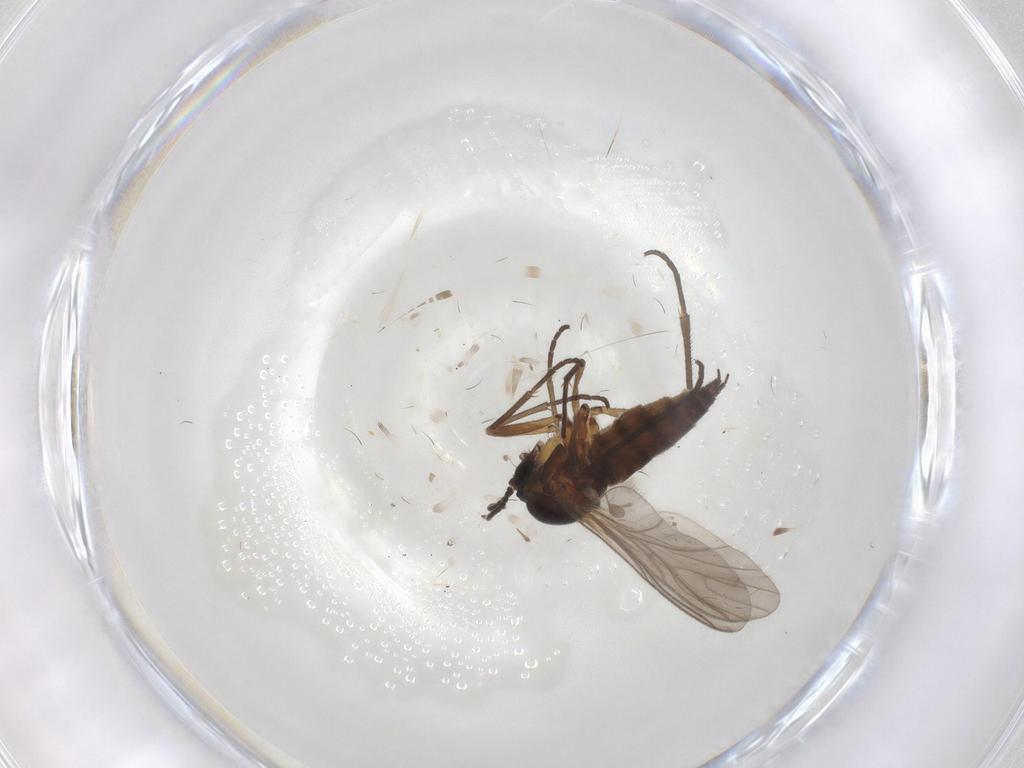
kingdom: Animalia
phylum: Arthropoda
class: Insecta
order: Diptera
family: Sciaridae
